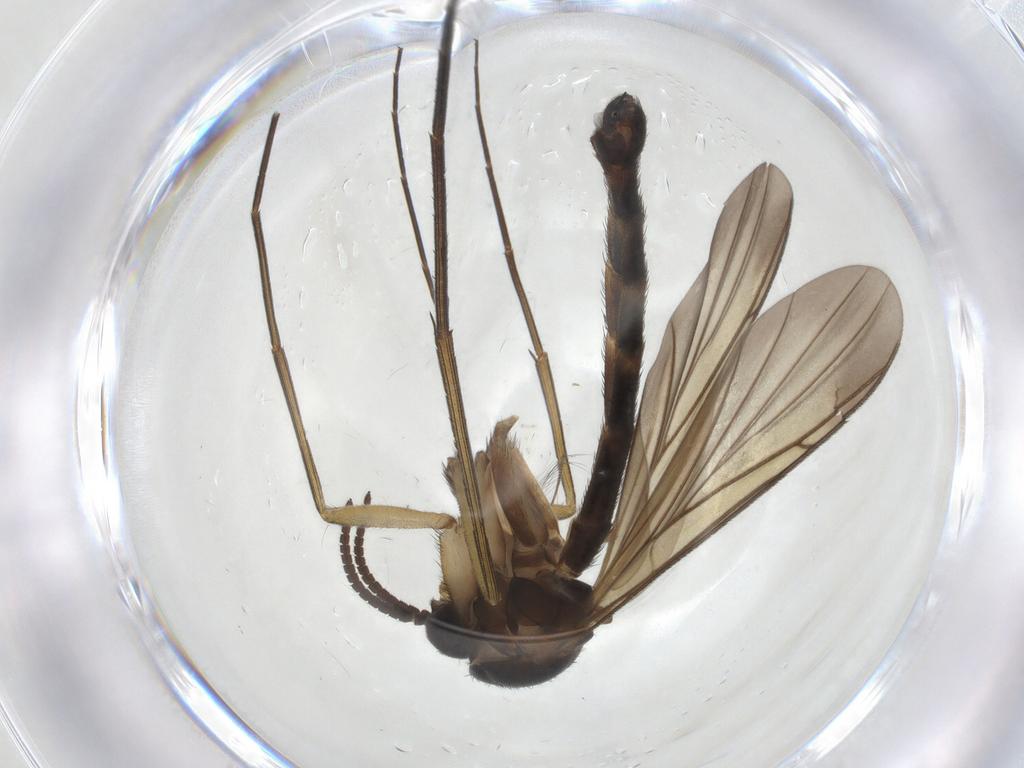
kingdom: Animalia
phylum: Arthropoda
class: Insecta
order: Diptera
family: Keroplatidae
